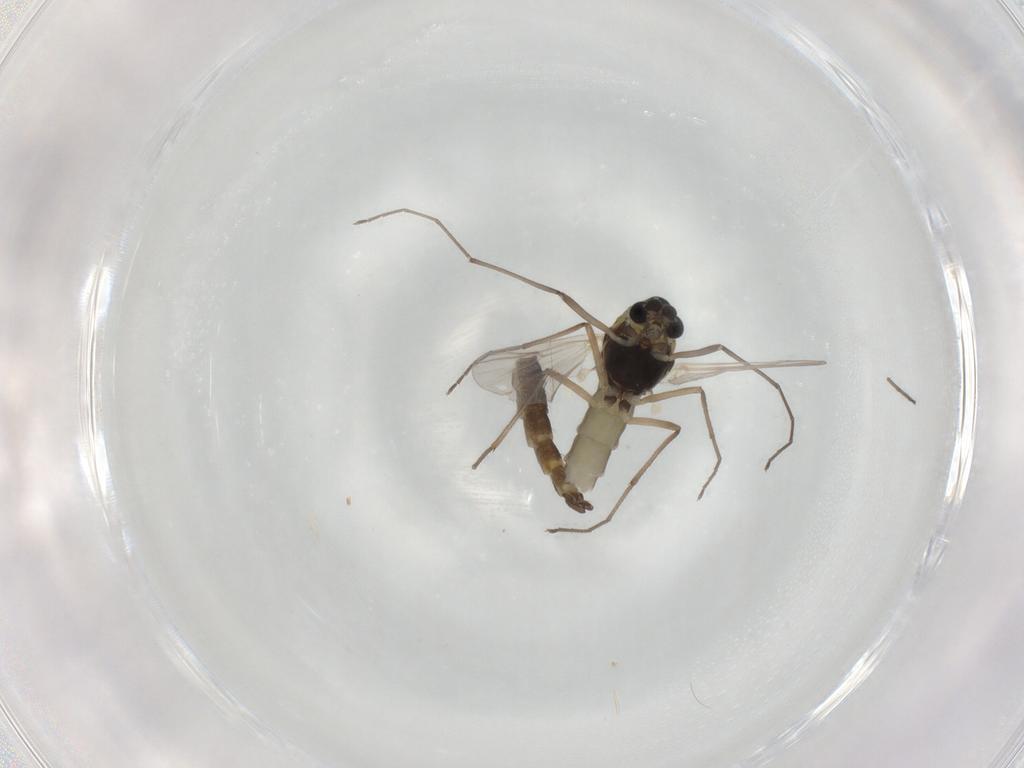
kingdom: Animalia
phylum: Arthropoda
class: Insecta
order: Diptera
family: Chironomidae
